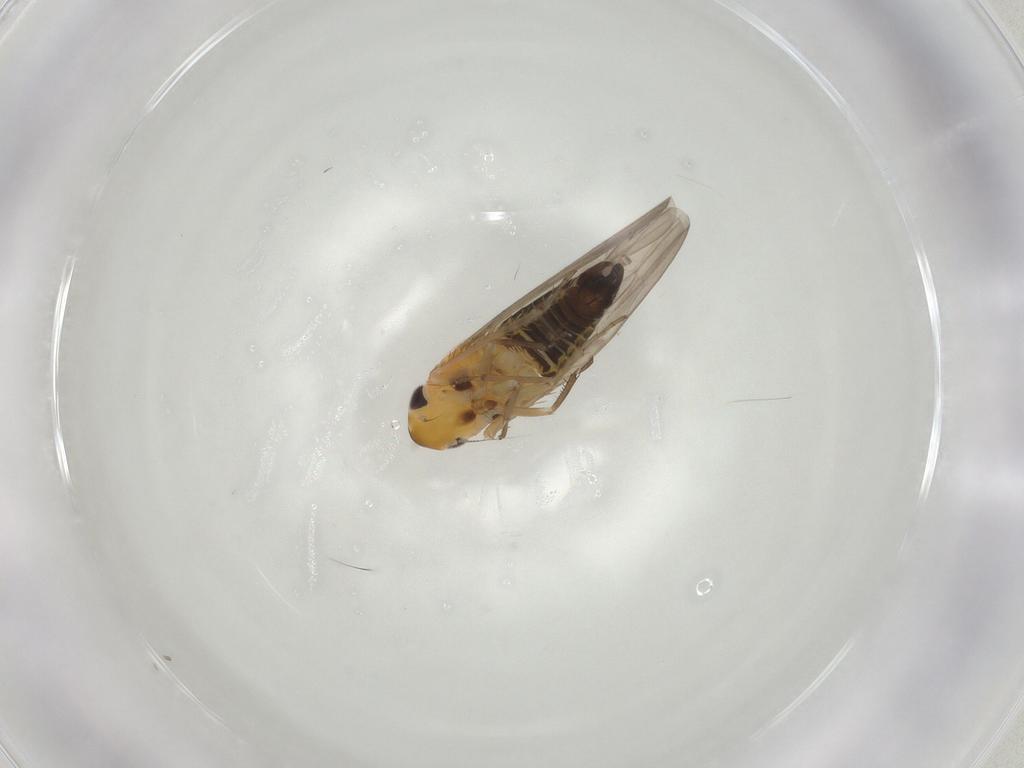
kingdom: Animalia
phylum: Arthropoda
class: Insecta
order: Hemiptera
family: Cicadellidae
